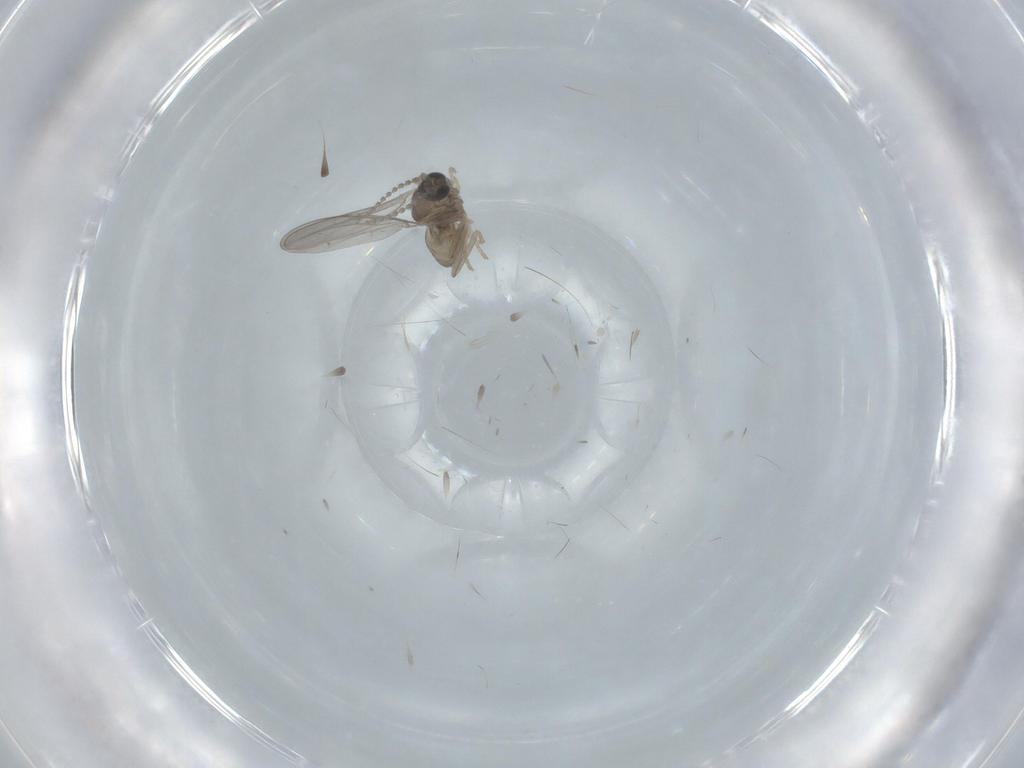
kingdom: Animalia
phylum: Arthropoda
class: Insecta
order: Diptera
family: Cecidomyiidae
